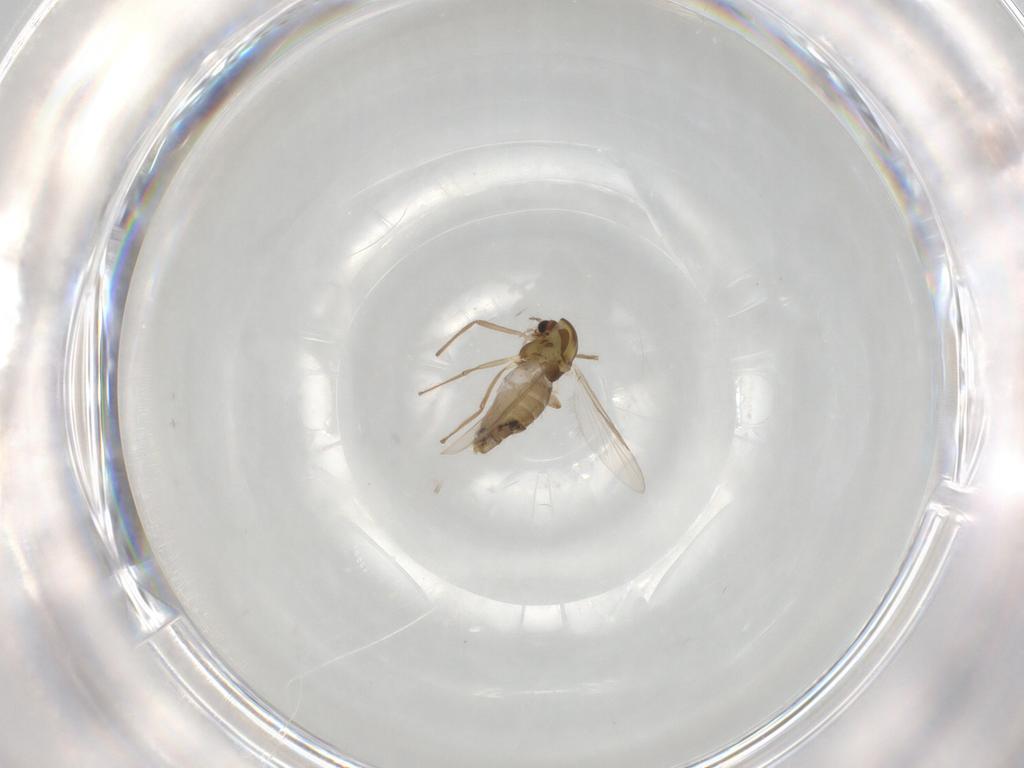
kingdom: Animalia
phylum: Arthropoda
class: Insecta
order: Diptera
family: Chironomidae
